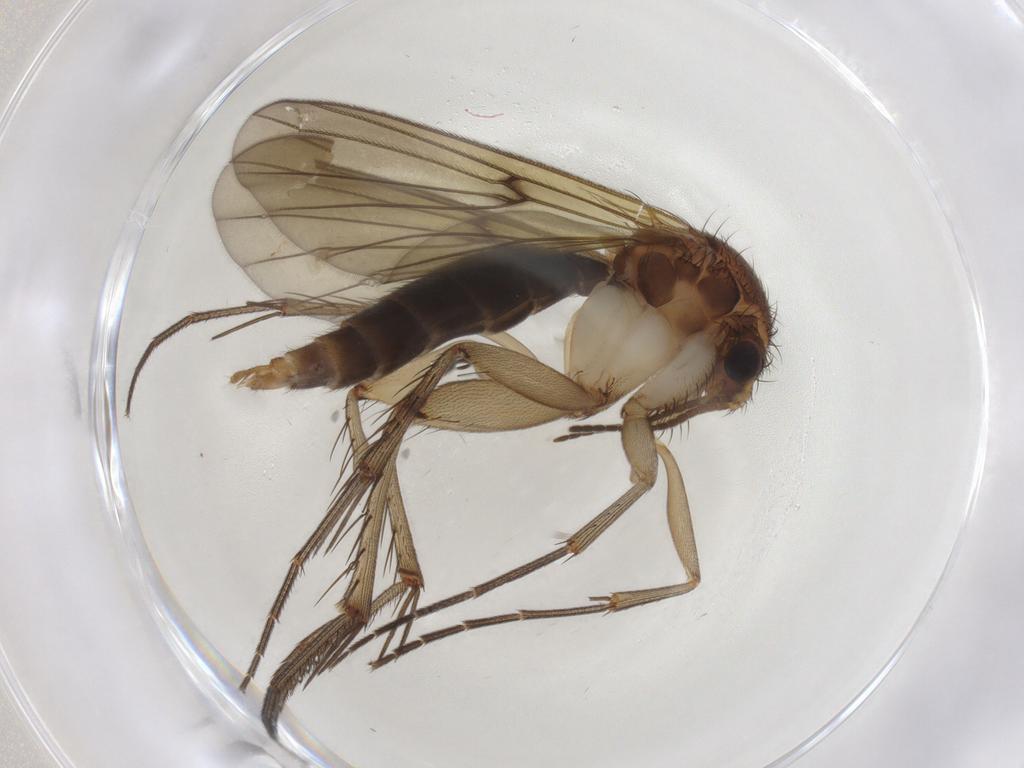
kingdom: Animalia
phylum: Arthropoda
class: Insecta
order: Diptera
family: Mycetophilidae
